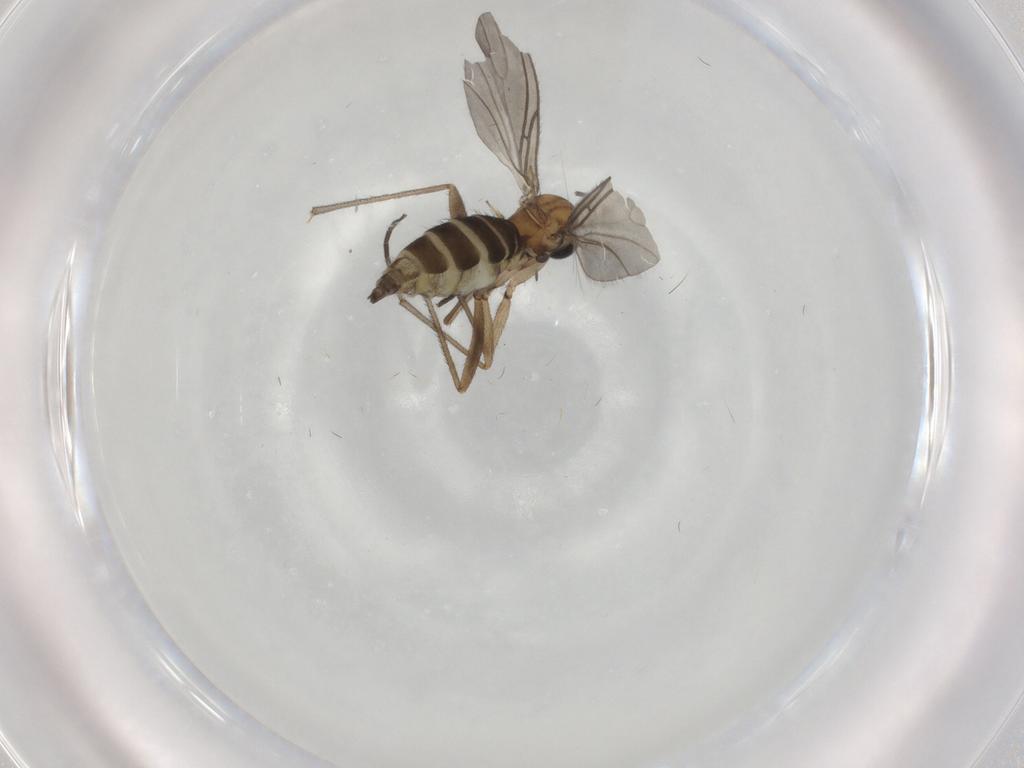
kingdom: Animalia
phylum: Arthropoda
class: Insecta
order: Diptera
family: Sciaridae
